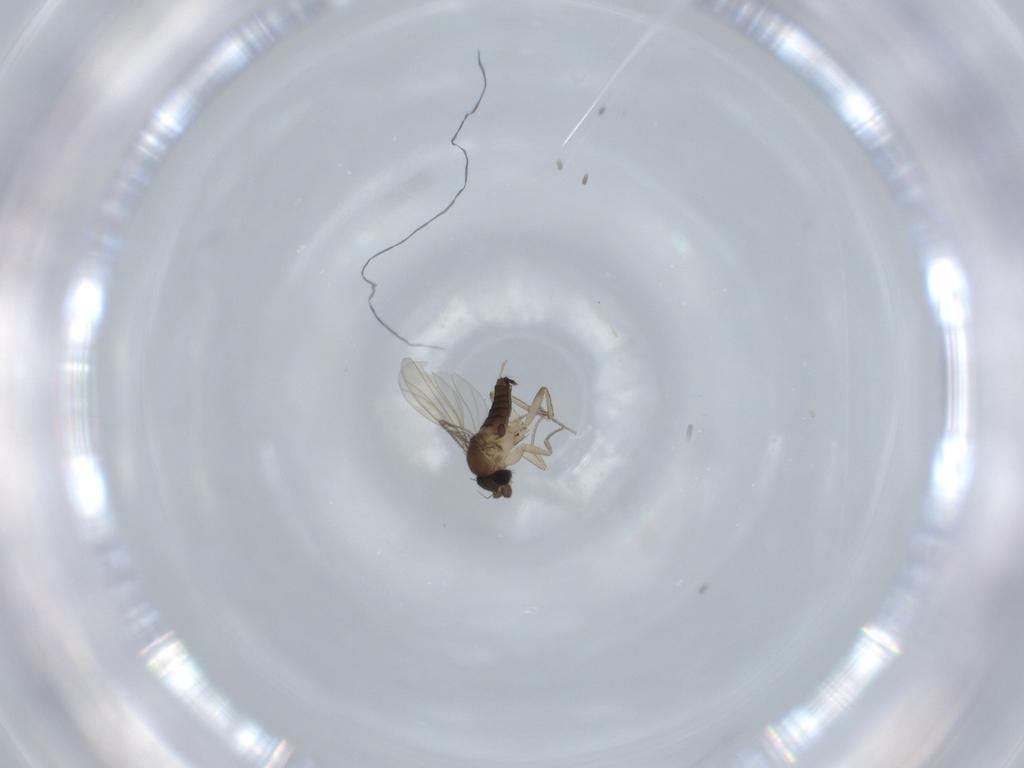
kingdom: Animalia
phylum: Arthropoda
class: Insecta
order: Diptera
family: Phoridae
